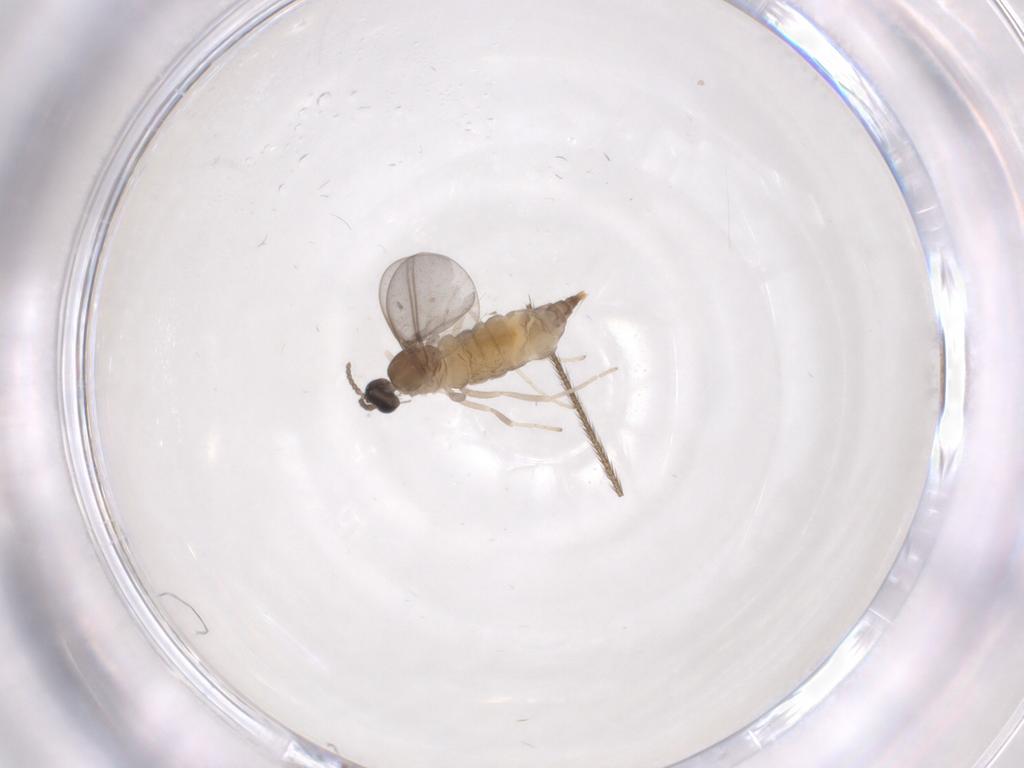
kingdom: Animalia
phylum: Arthropoda
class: Insecta
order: Diptera
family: Cecidomyiidae
